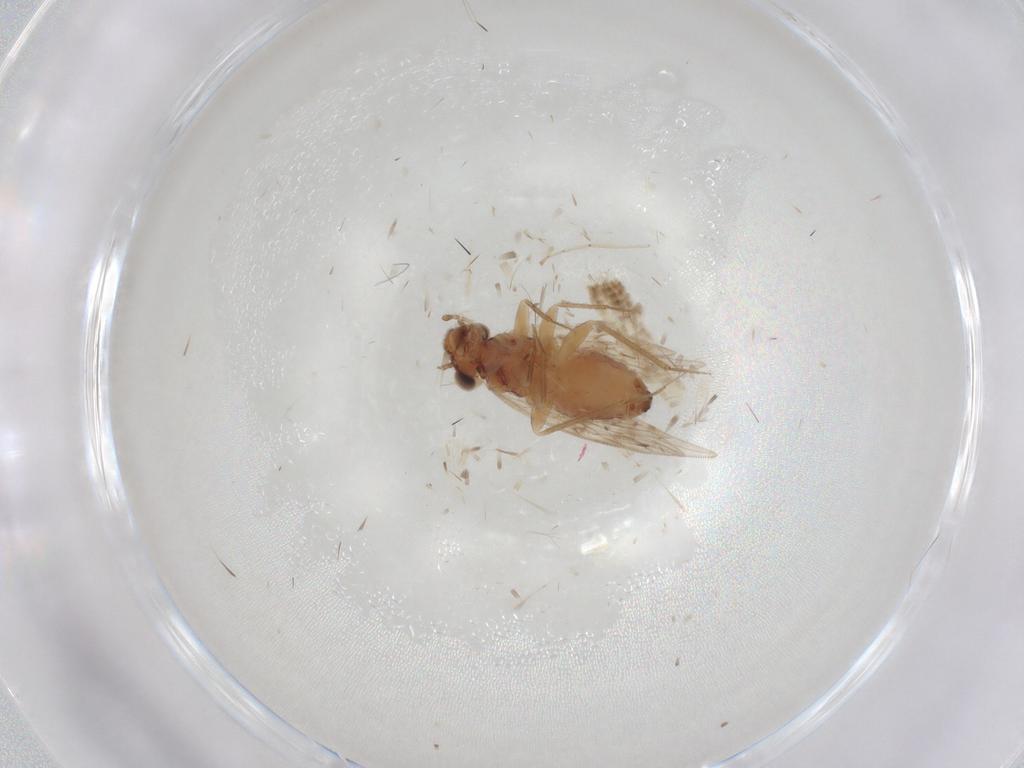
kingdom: Animalia
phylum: Arthropoda
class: Insecta
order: Psocodea
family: Lepidopsocidae
